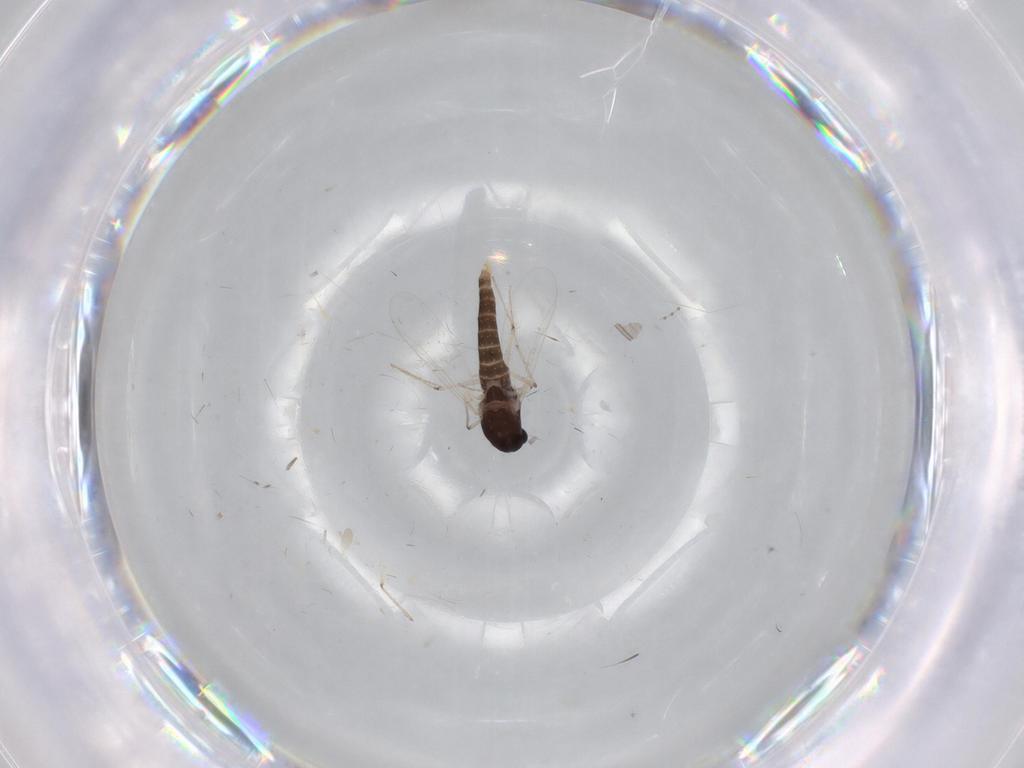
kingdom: Animalia
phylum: Arthropoda
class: Insecta
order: Diptera
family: Cecidomyiidae
